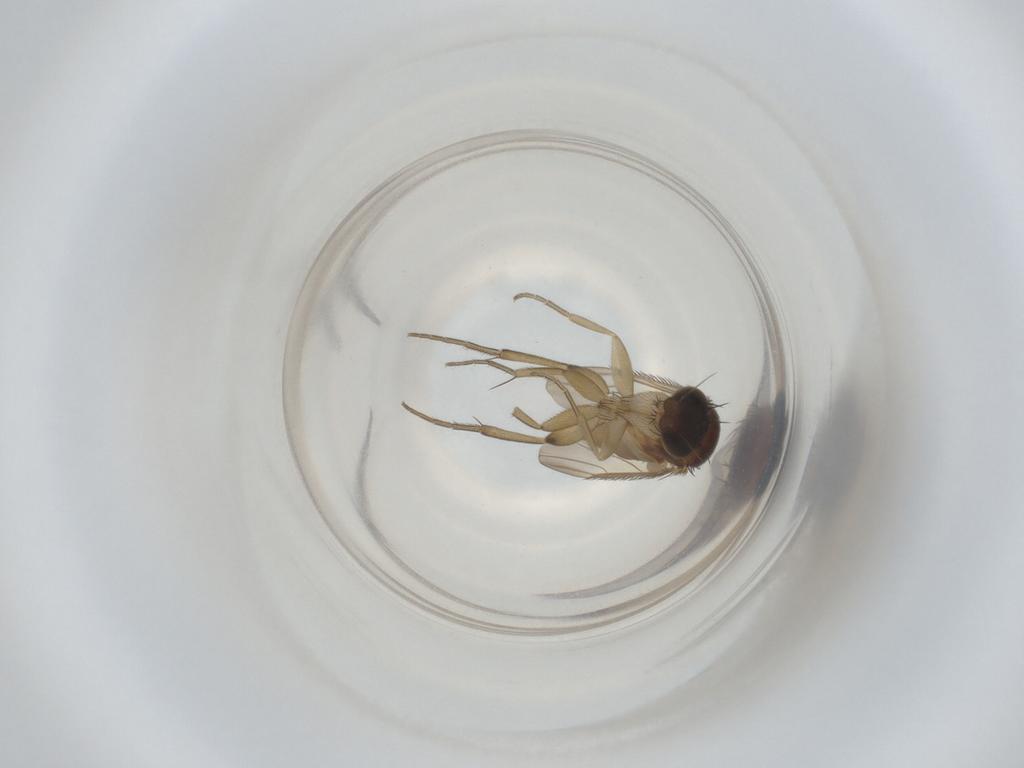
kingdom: Animalia
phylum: Arthropoda
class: Insecta
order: Diptera
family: Phoridae
